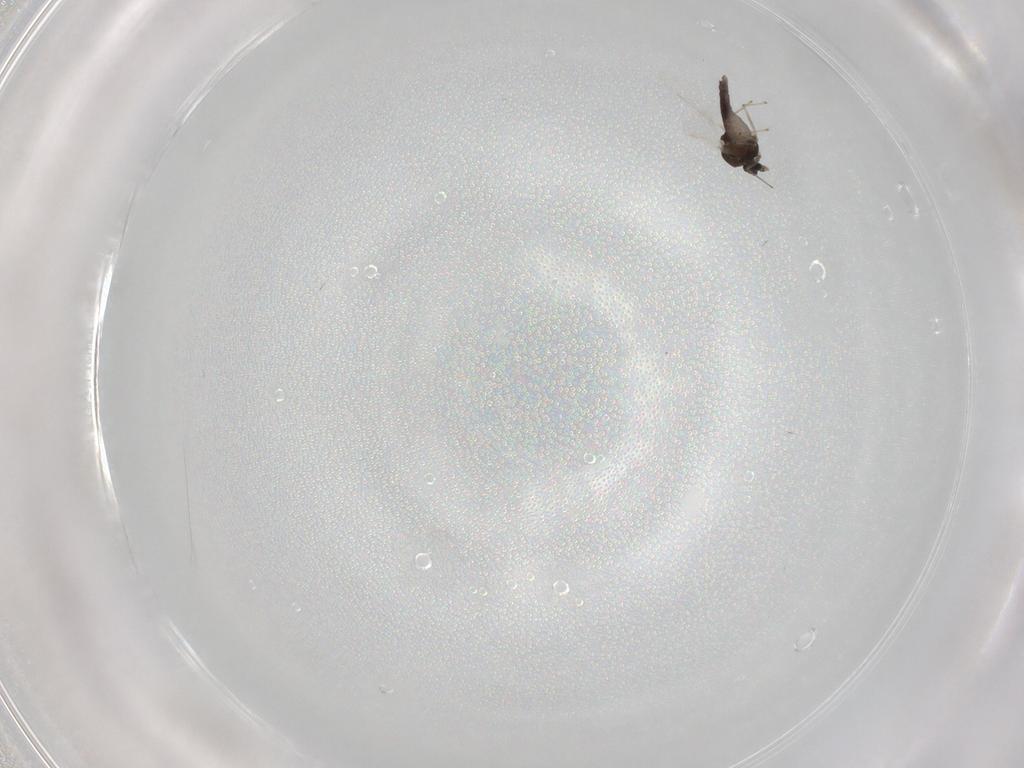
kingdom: Animalia
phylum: Arthropoda
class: Insecta
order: Diptera
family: Chironomidae
